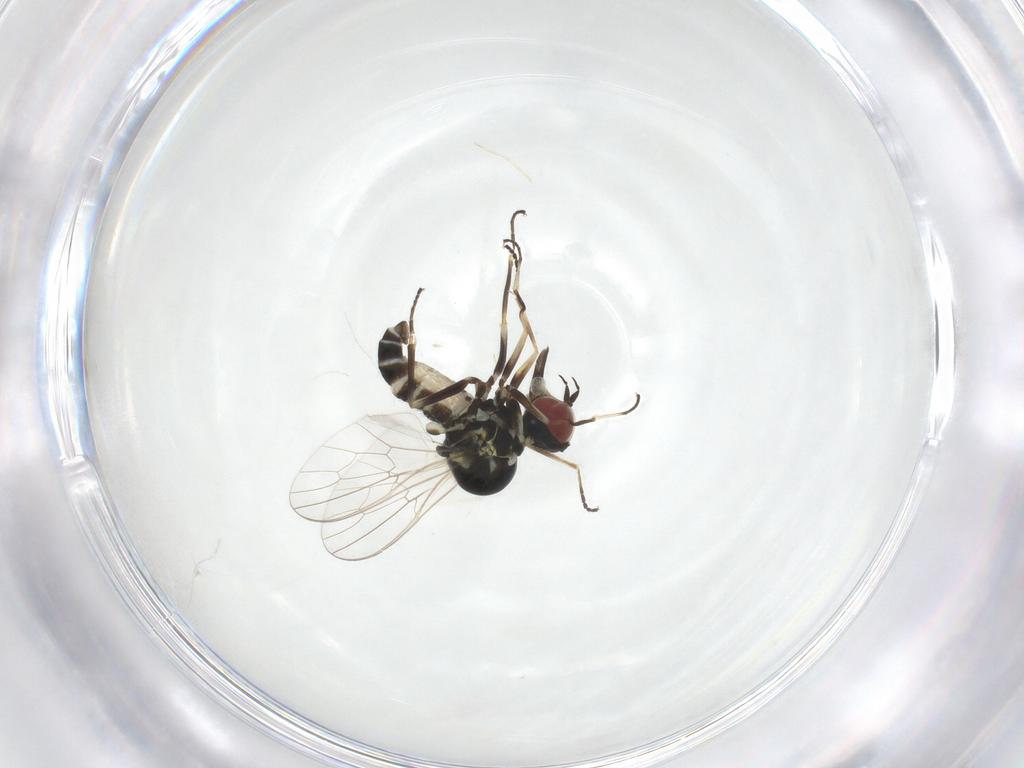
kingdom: Animalia
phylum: Arthropoda
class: Insecta
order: Diptera
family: Bombyliidae
